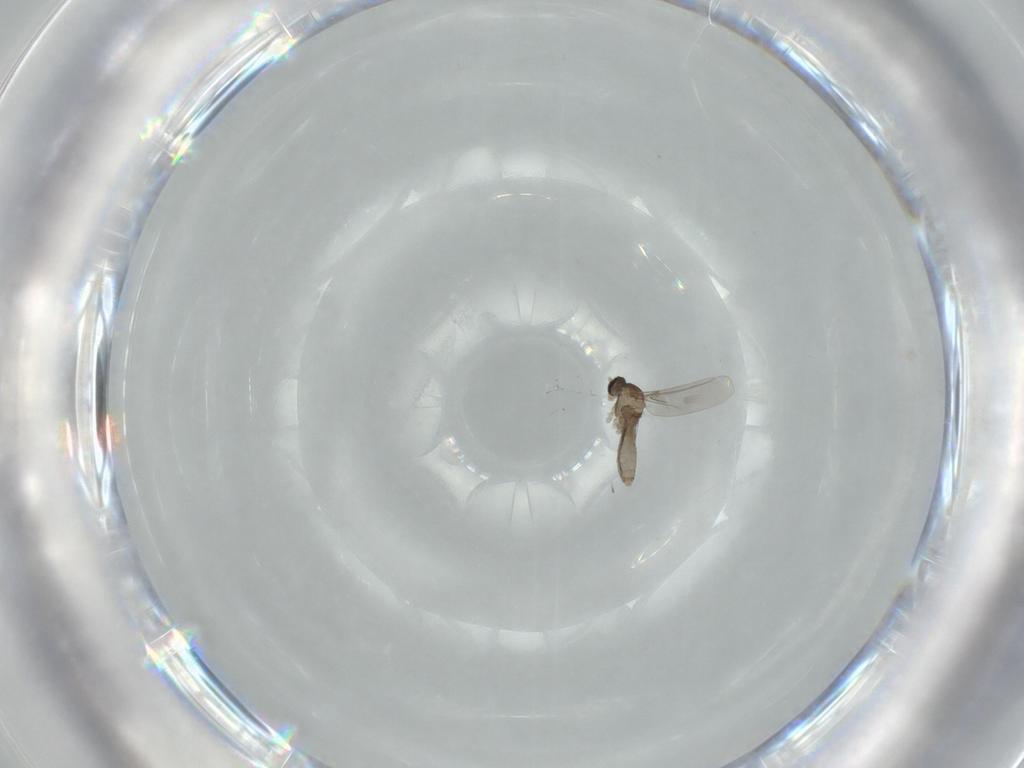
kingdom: Animalia
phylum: Arthropoda
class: Insecta
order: Diptera
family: Cecidomyiidae
